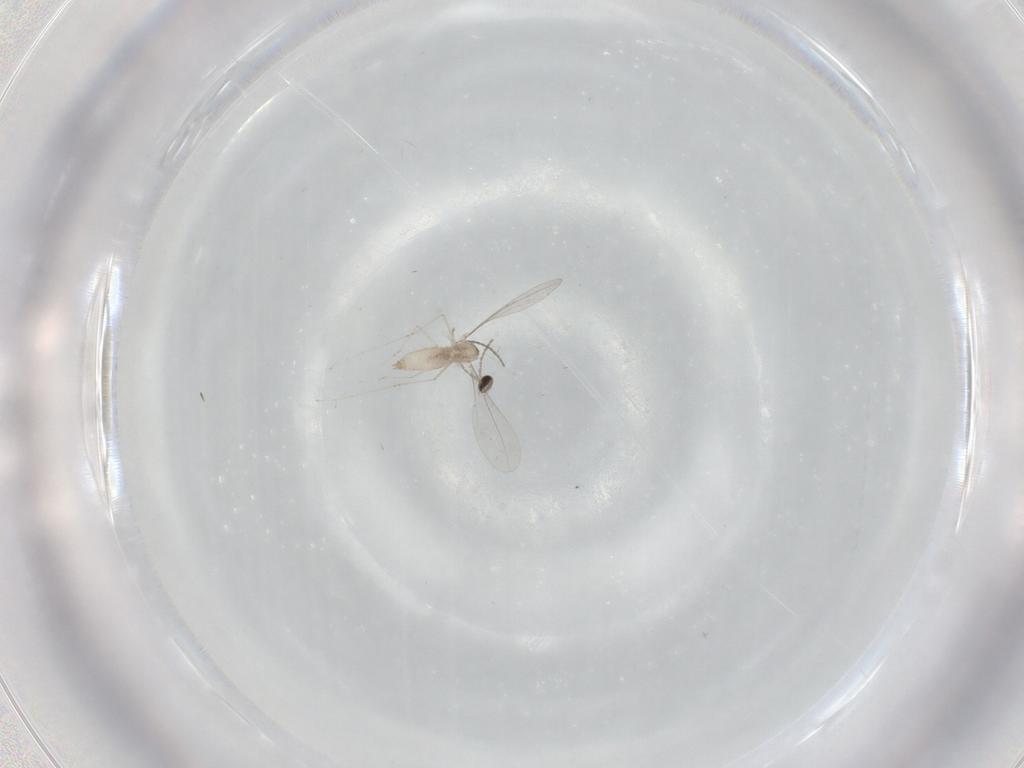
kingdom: Animalia
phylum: Arthropoda
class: Insecta
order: Diptera
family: Cecidomyiidae
